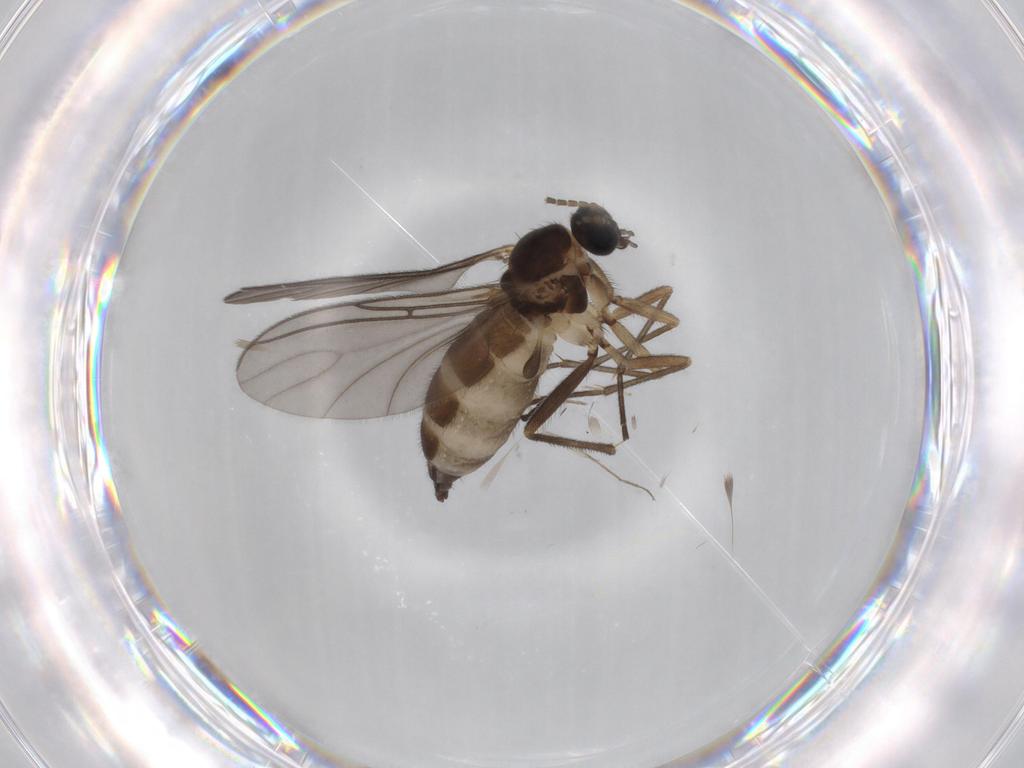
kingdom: Animalia
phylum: Arthropoda
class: Insecta
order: Diptera
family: Sciaridae
